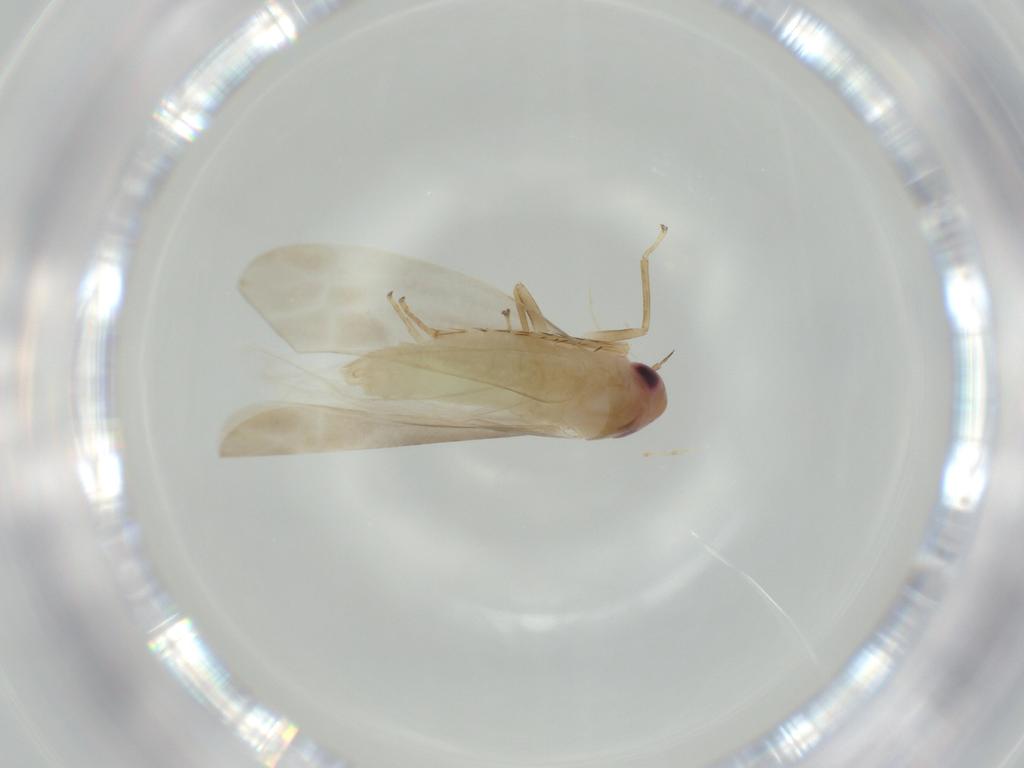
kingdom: Animalia
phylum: Arthropoda
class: Insecta
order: Hemiptera
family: Cicadellidae
